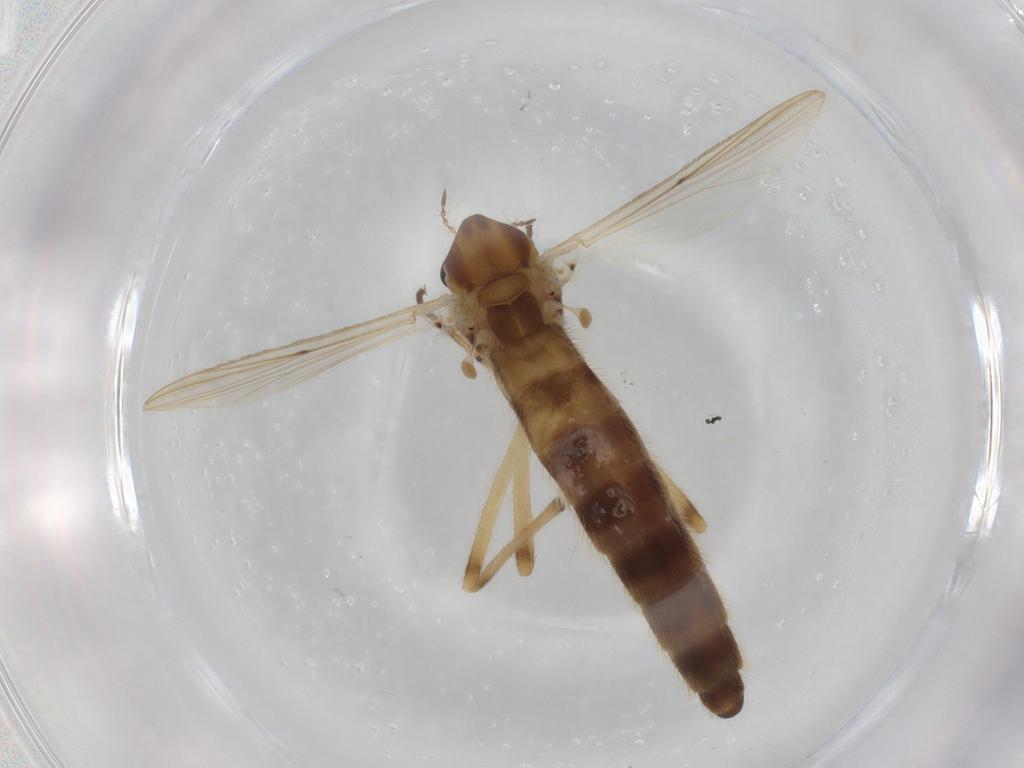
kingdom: Animalia
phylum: Arthropoda
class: Insecta
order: Diptera
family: Chironomidae
